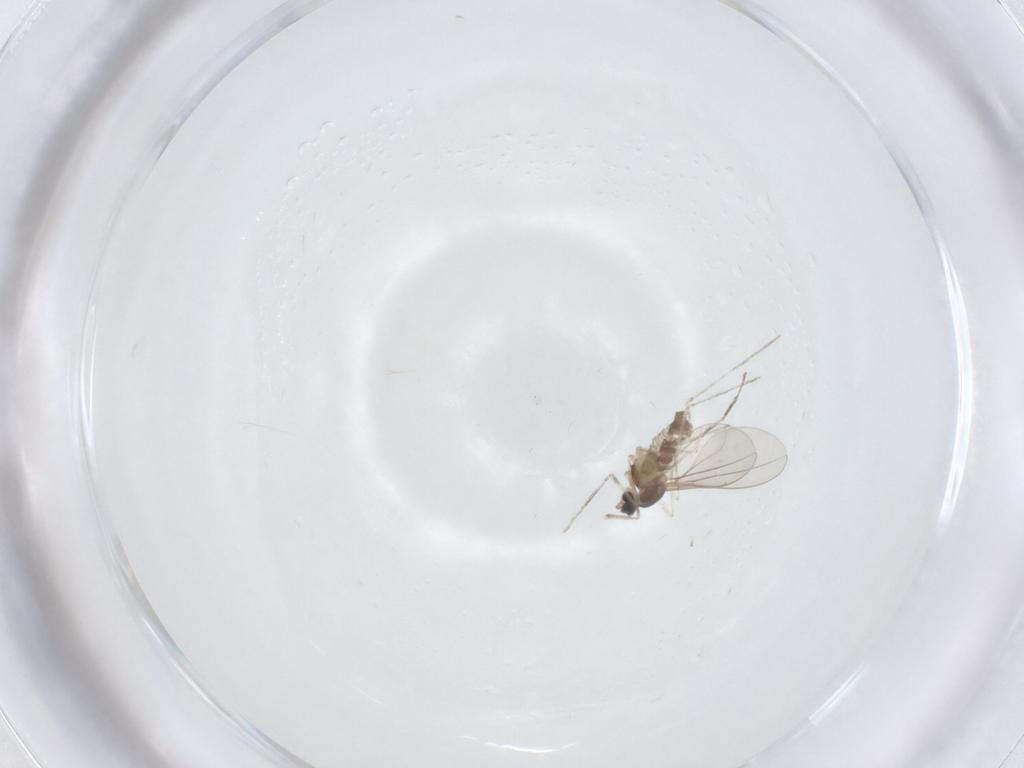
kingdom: Animalia
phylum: Arthropoda
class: Insecta
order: Diptera
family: Cecidomyiidae
